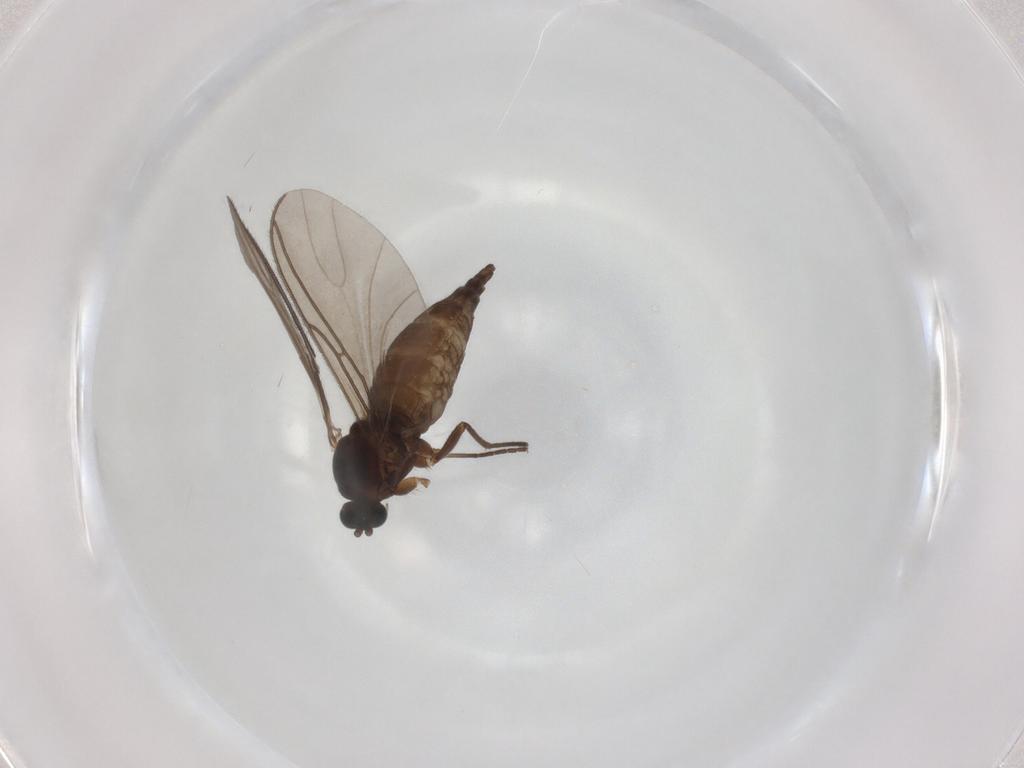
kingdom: Animalia
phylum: Arthropoda
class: Insecta
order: Diptera
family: Sciaridae
